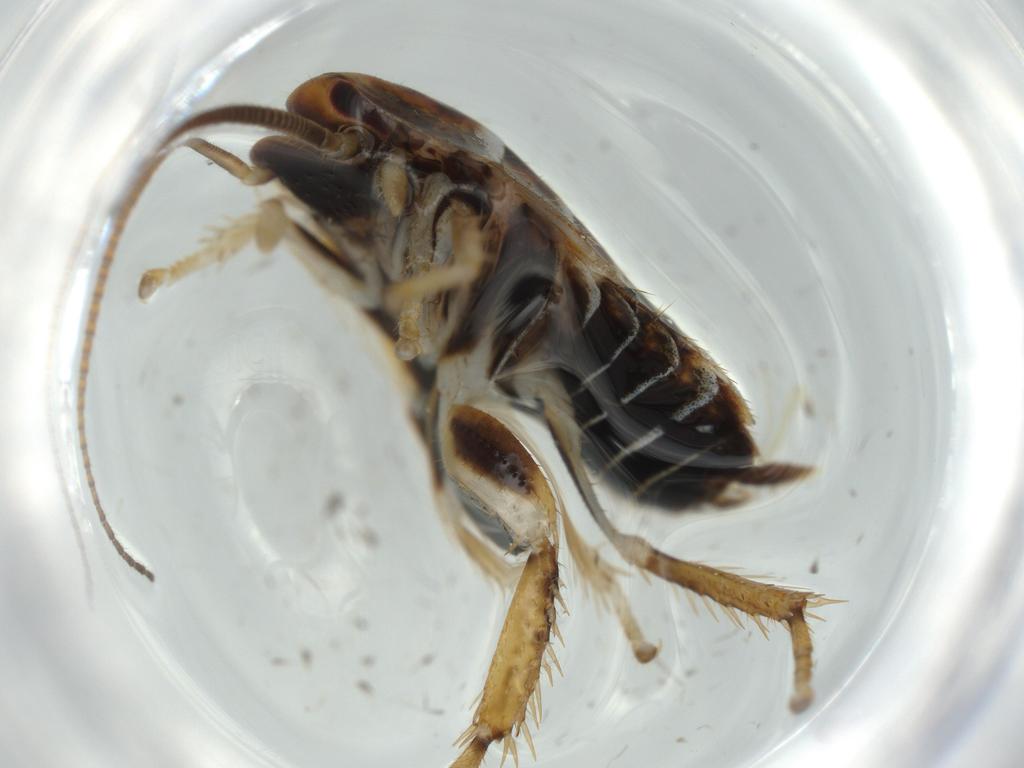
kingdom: Animalia
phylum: Arthropoda
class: Insecta
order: Blattodea
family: Ectobiidae
